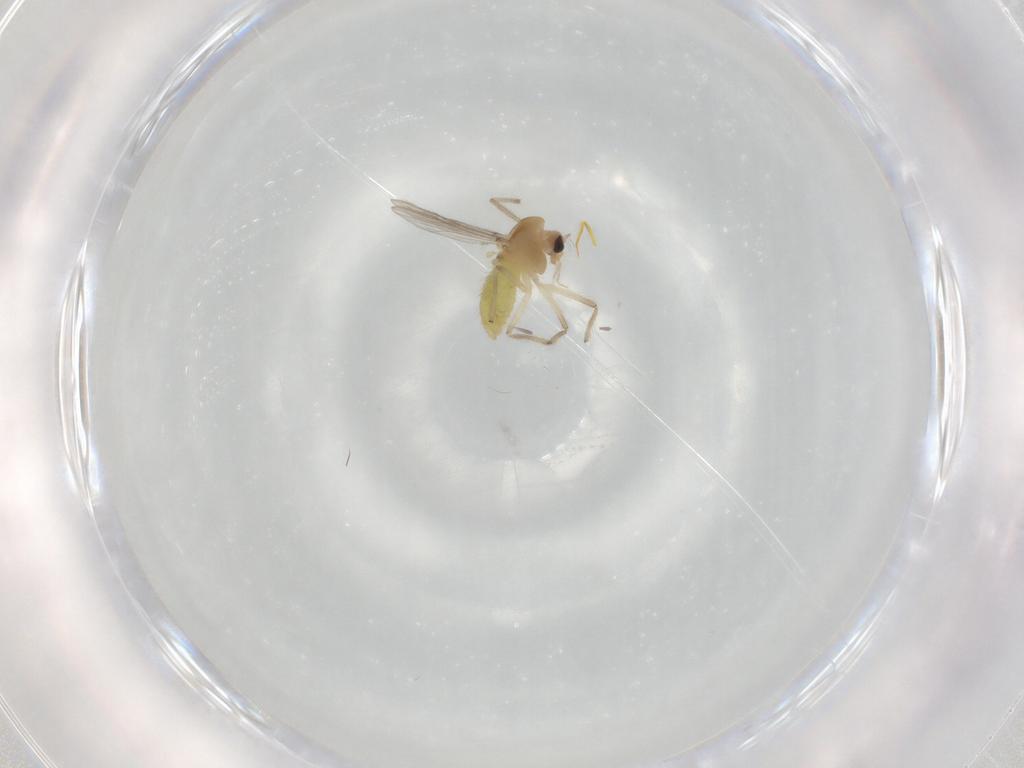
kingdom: Animalia
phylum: Arthropoda
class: Insecta
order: Diptera
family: Chironomidae
